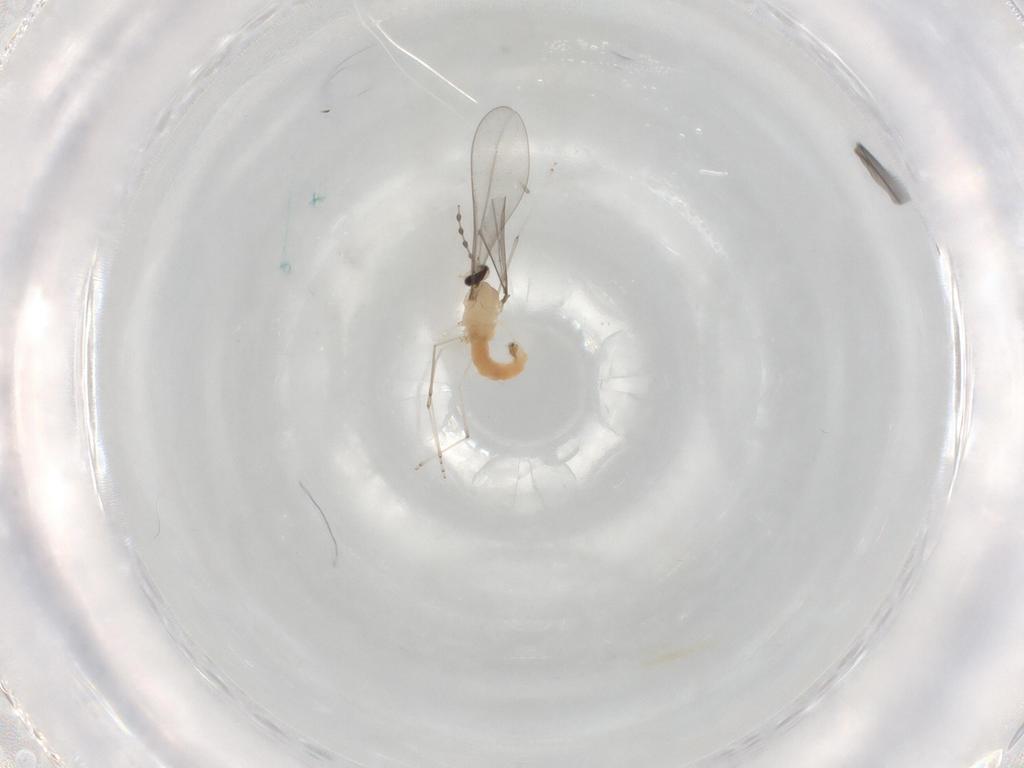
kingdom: Animalia
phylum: Arthropoda
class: Insecta
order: Diptera
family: Cecidomyiidae
